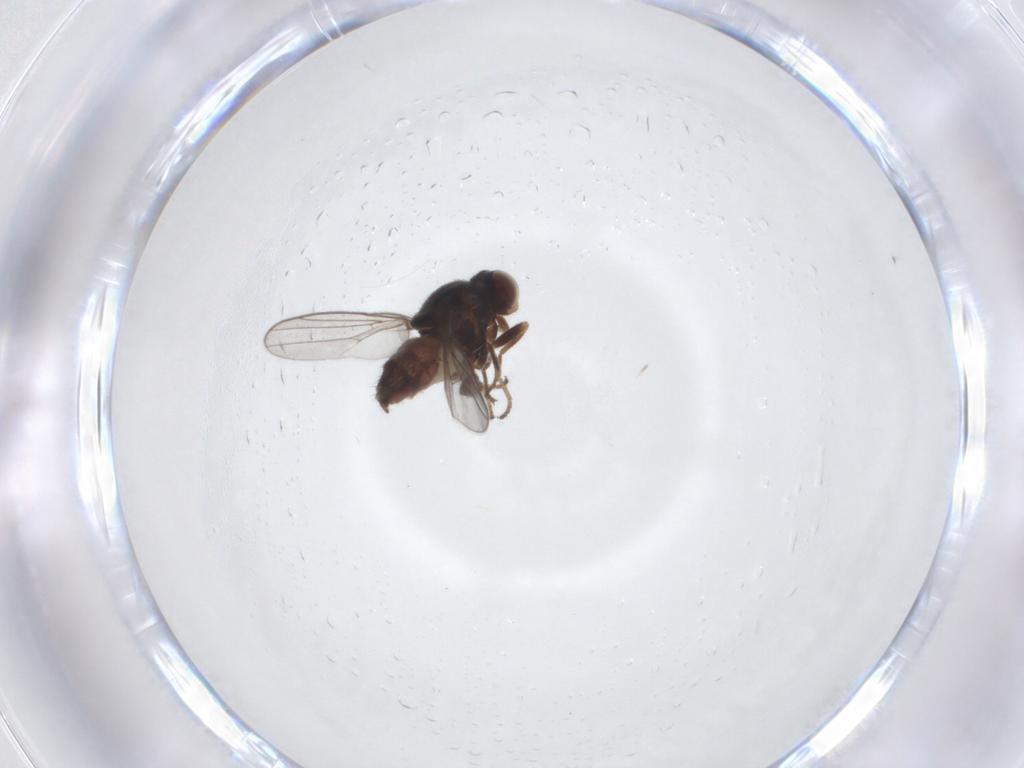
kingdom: Animalia
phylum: Arthropoda
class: Insecta
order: Diptera
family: Chloropidae
